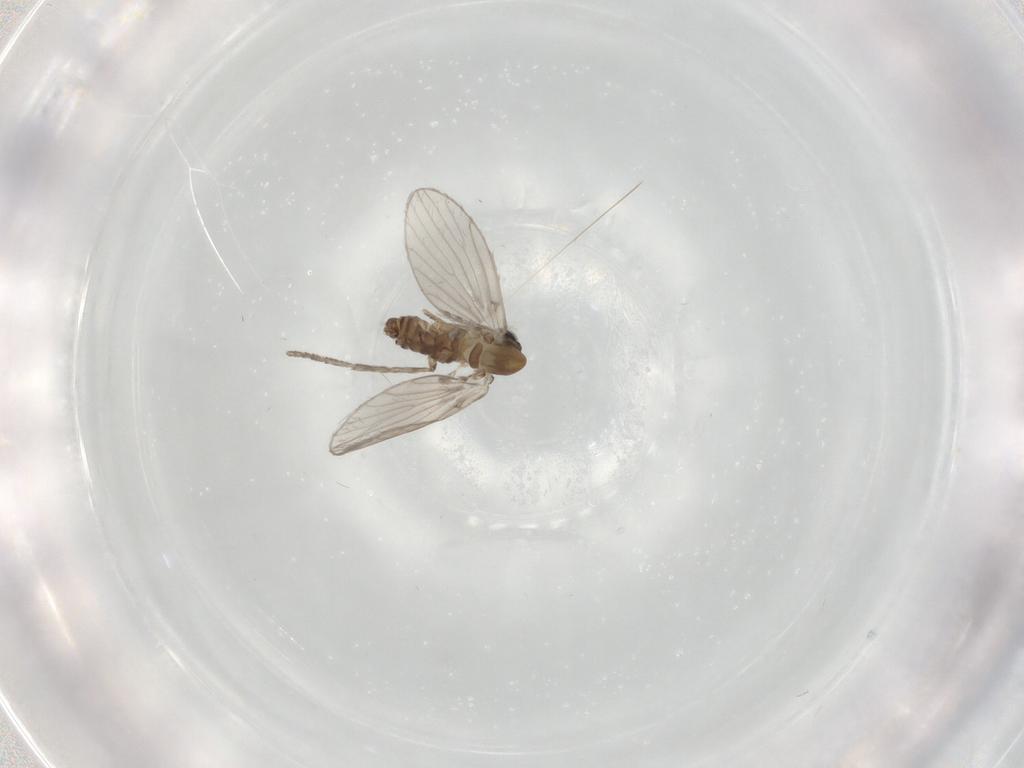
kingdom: Animalia
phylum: Arthropoda
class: Insecta
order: Diptera
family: Psychodidae
